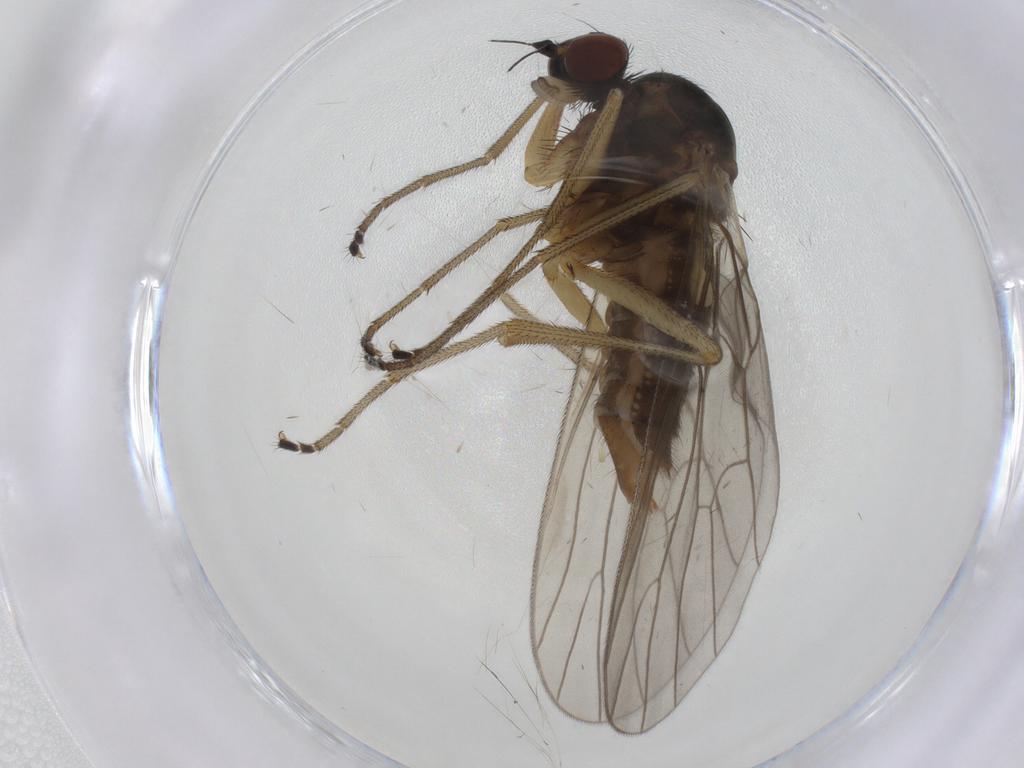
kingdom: Animalia
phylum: Arthropoda
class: Insecta
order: Diptera
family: Brachystomatidae
